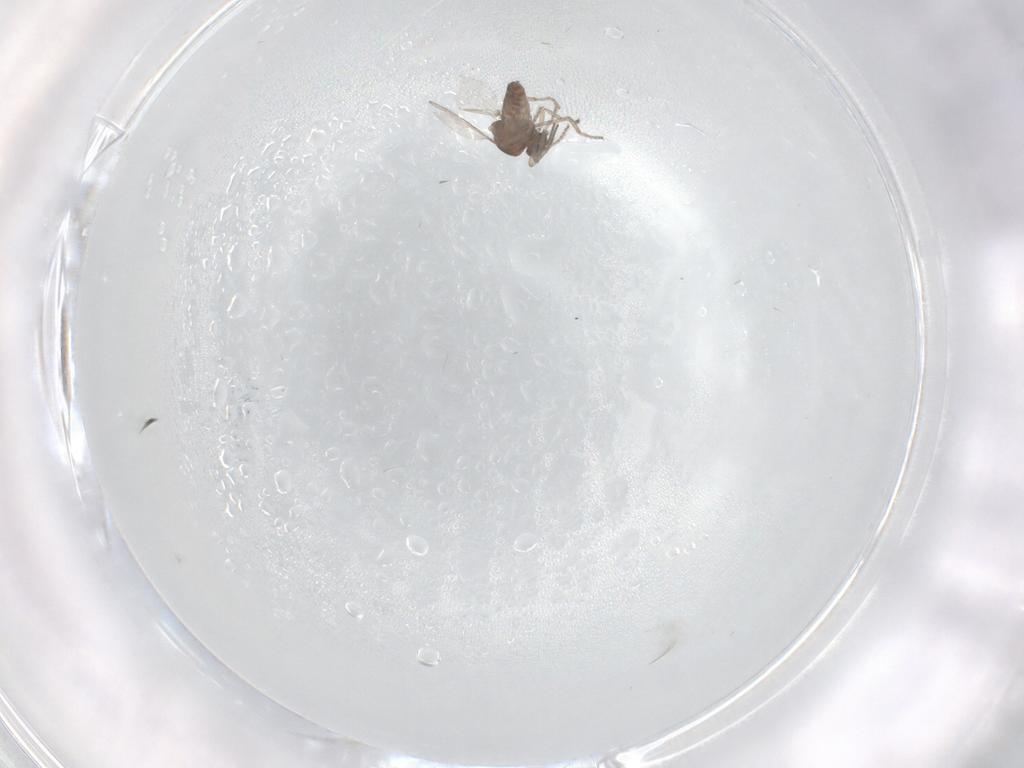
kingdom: Animalia
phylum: Arthropoda
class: Insecta
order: Diptera
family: Ceratopogonidae
